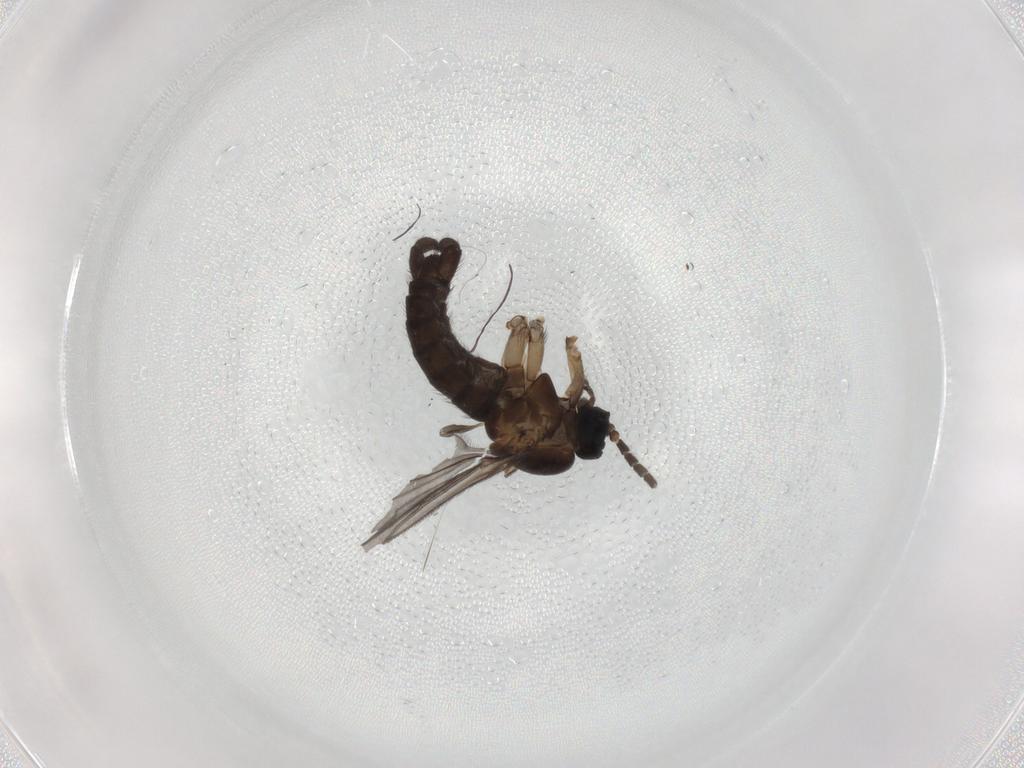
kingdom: Animalia
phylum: Arthropoda
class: Insecta
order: Diptera
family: Sciaridae
